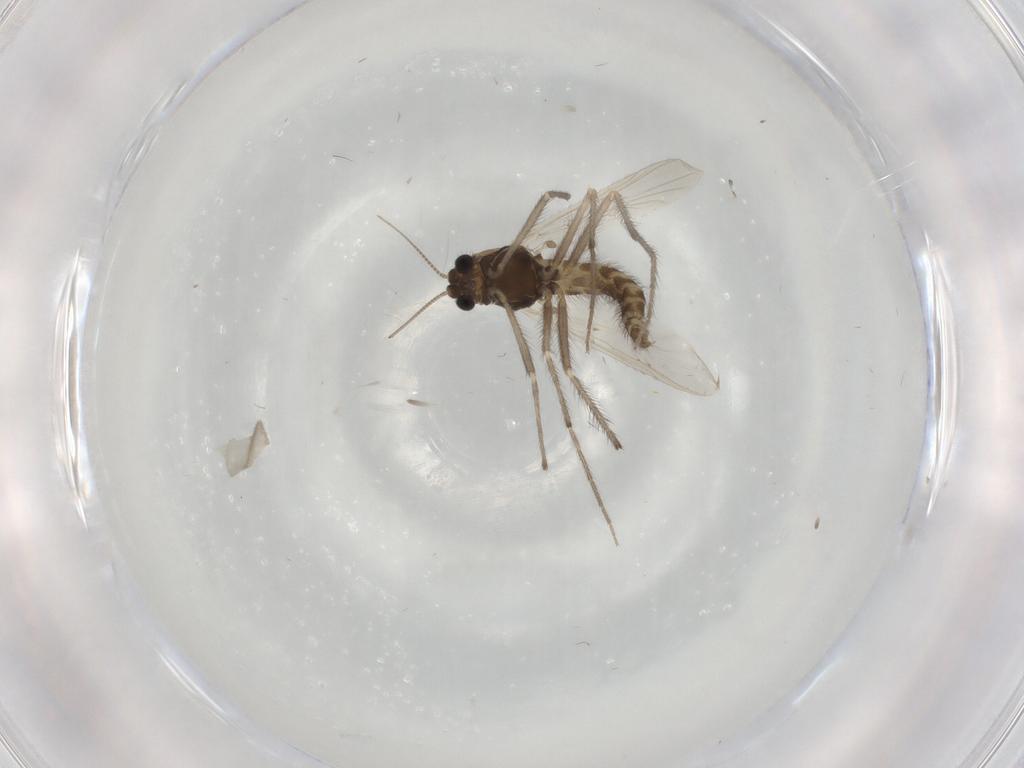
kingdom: Animalia
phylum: Arthropoda
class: Insecta
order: Diptera
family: Chironomidae
